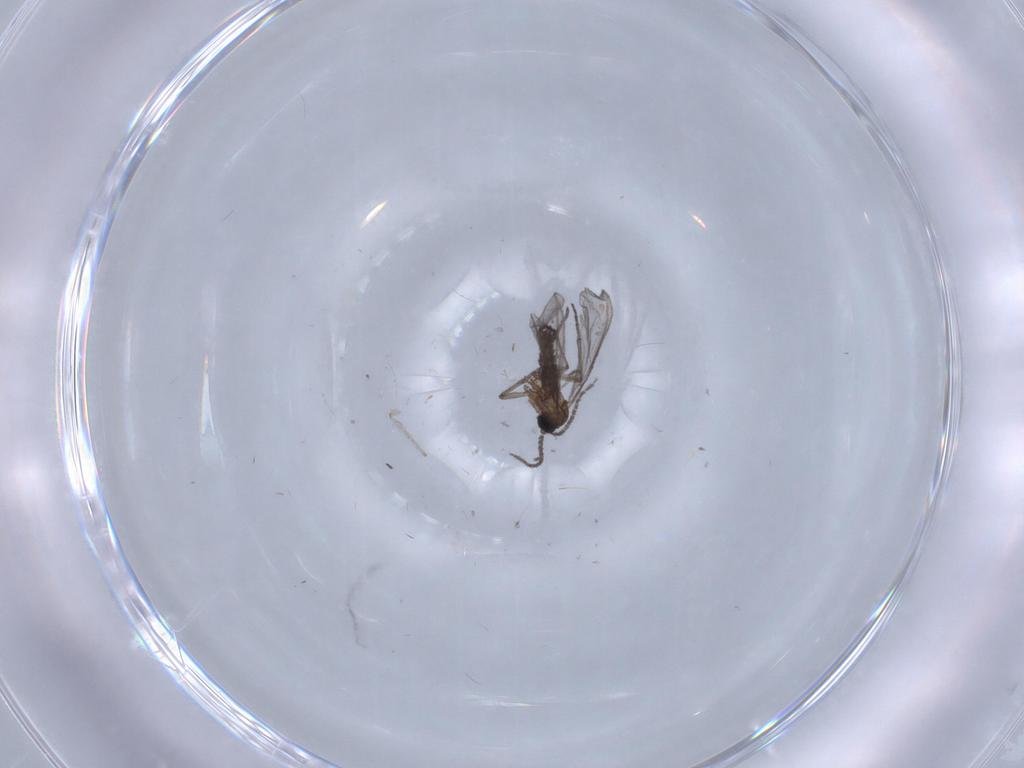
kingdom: Animalia
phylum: Arthropoda
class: Insecta
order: Diptera
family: Sciaridae
